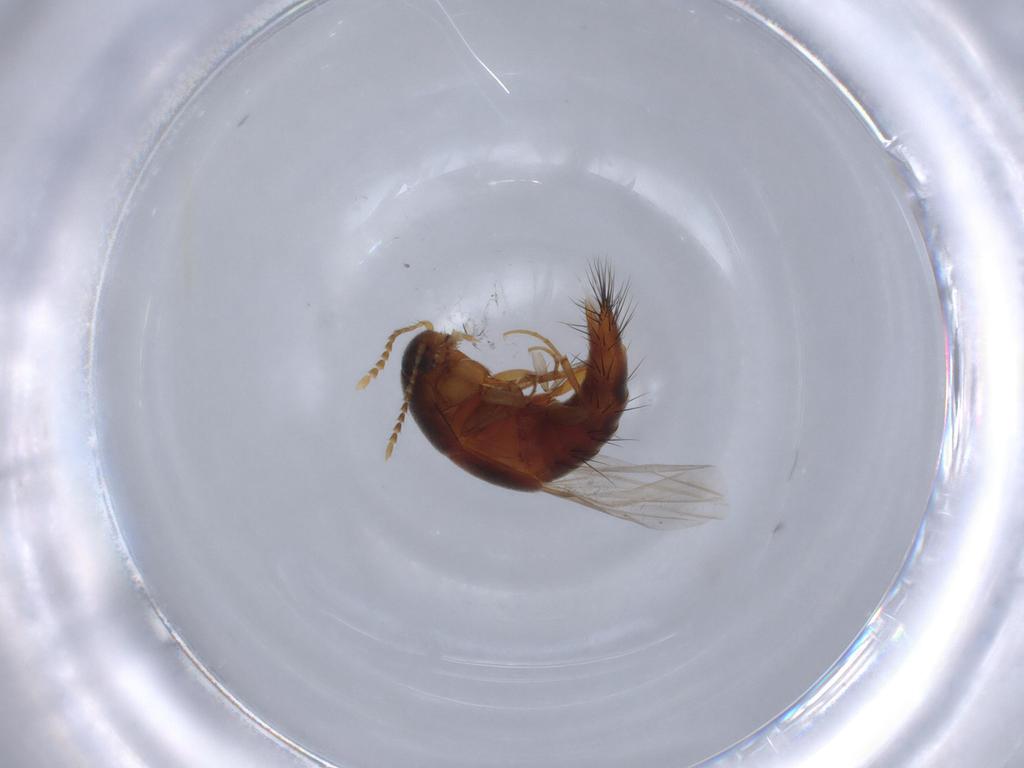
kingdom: Animalia
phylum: Arthropoda
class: Insecta
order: Coleoptera
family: Staphylinidae
